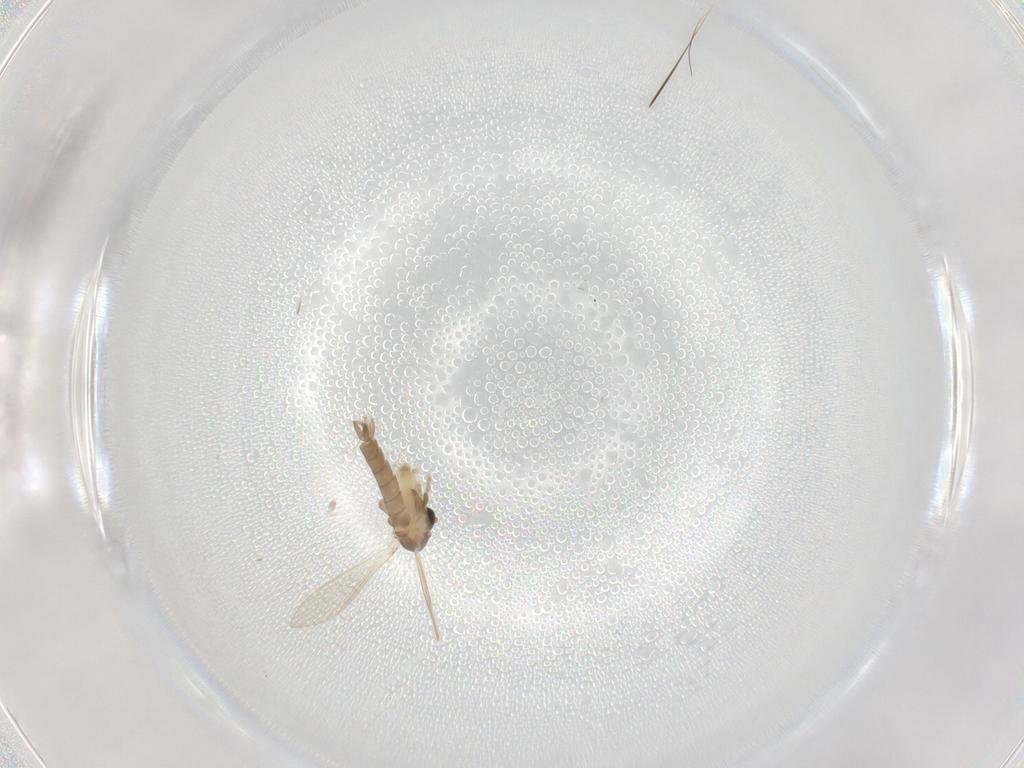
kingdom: Animalia
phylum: Arthropoda
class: Insecta
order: Diptera
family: Psychodidae
